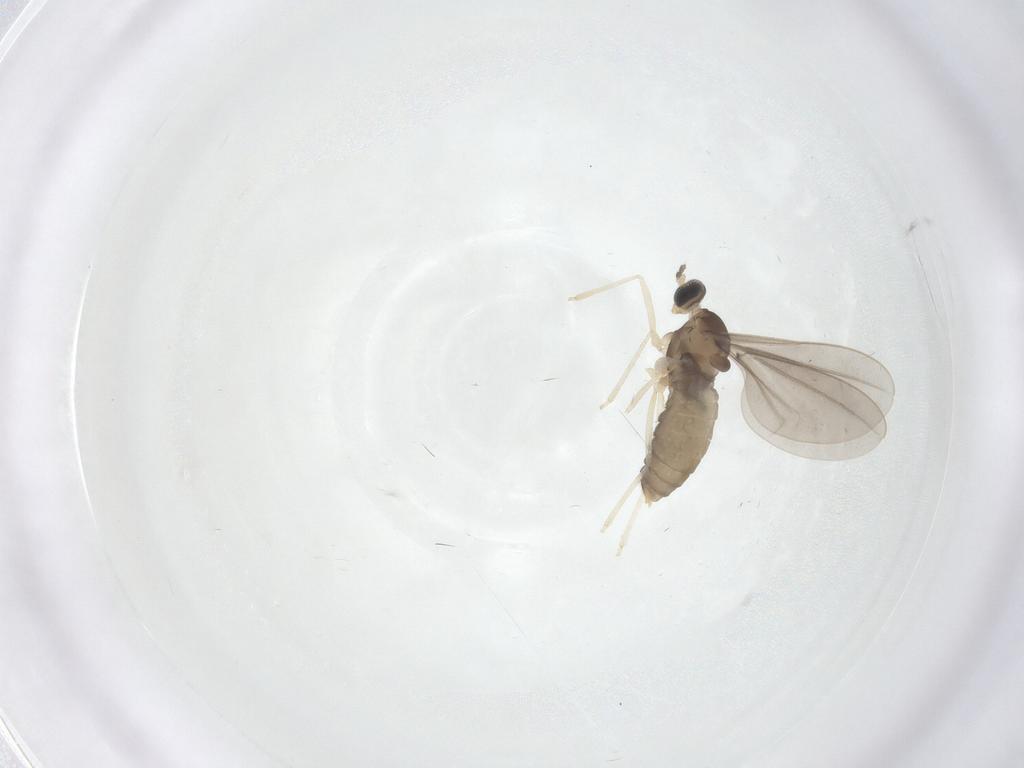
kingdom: Animalia
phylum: Arthropoda
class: Insecta
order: Diptera
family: Cecidomyiidae
